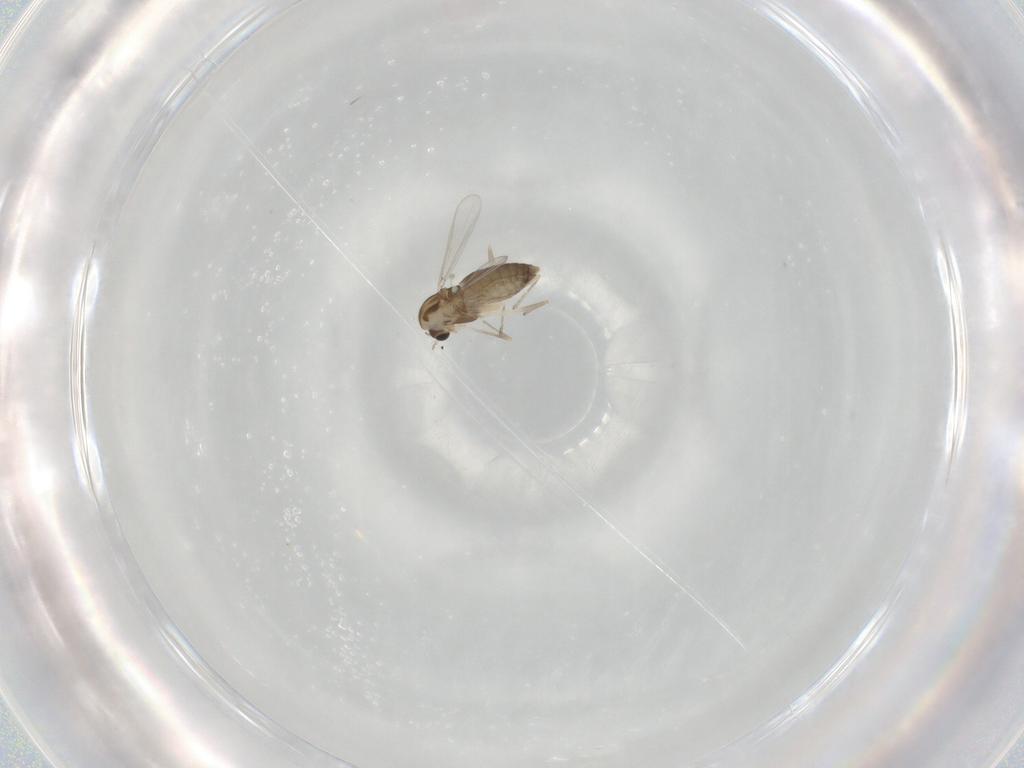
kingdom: Animalia
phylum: Arthropoda
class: Insecta
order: Diptera
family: Chironomidae
